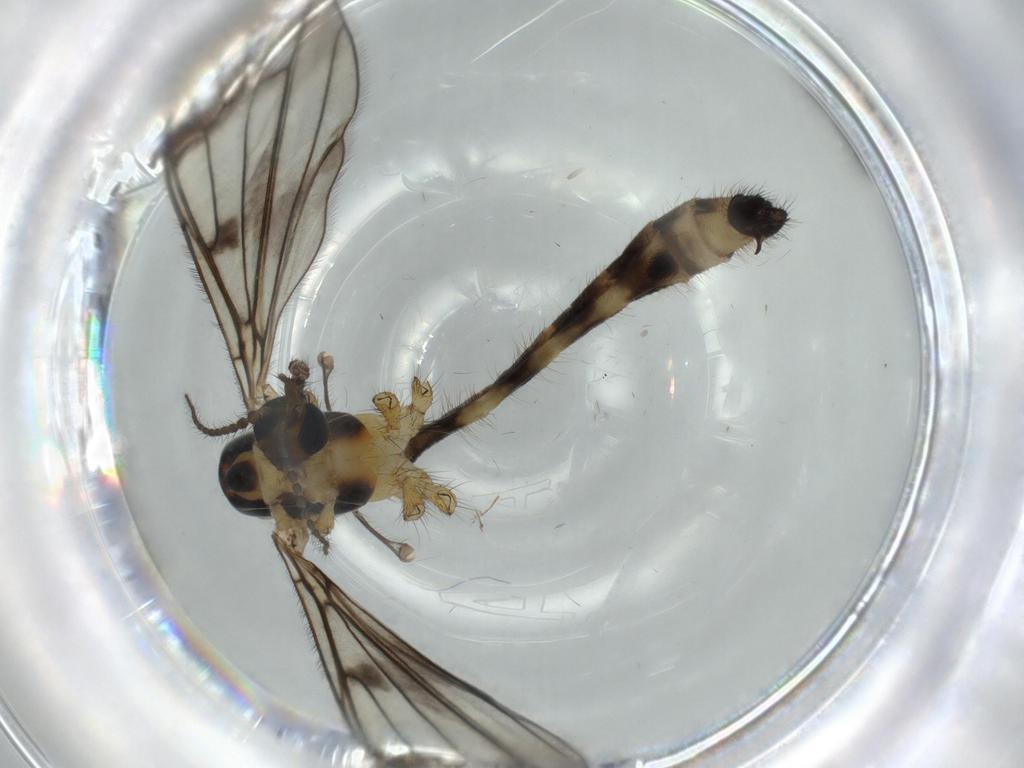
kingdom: Animalia
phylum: Arthropoda
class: Insecta
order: Diptera
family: Limoniidae
